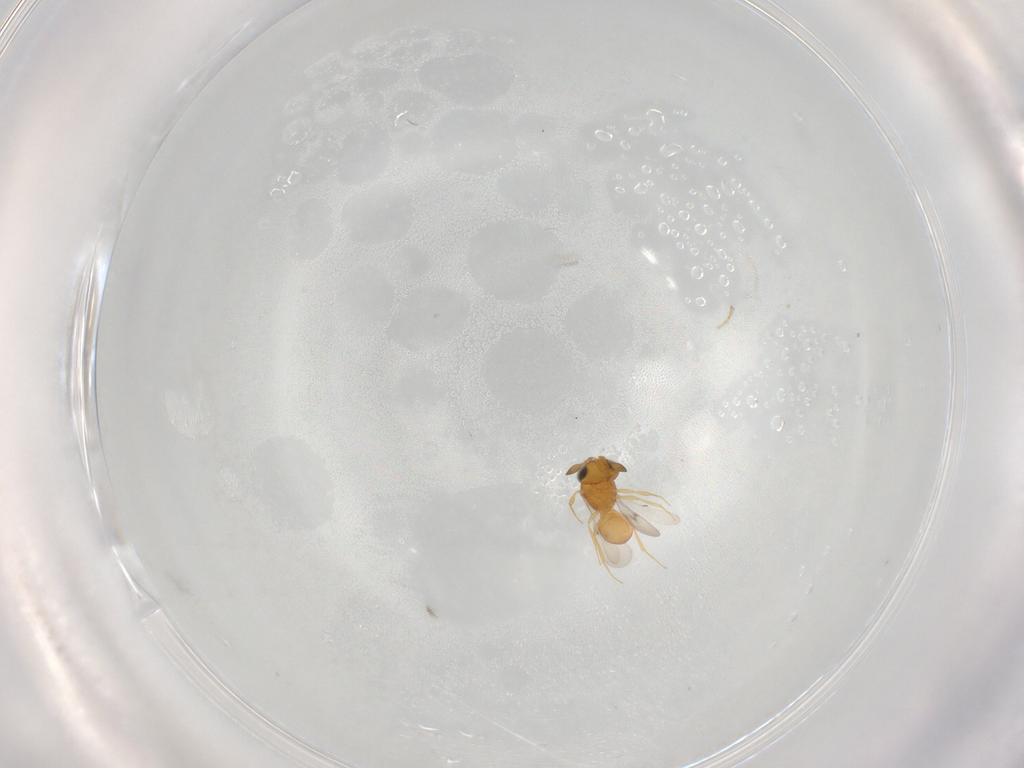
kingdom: Animalia
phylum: Arthropoda
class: Insecta
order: Hymenoptera
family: Scelionidae
